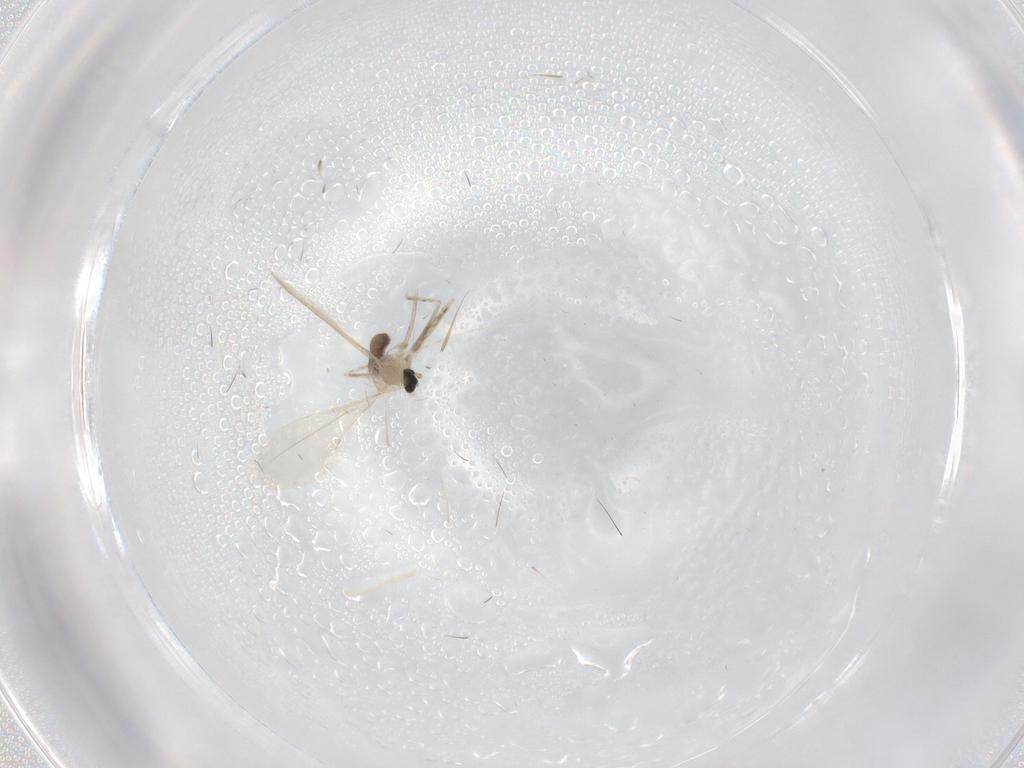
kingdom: Animalia
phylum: Arthropoda
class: Insecta
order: Diptera
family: Cecidomyiidae
